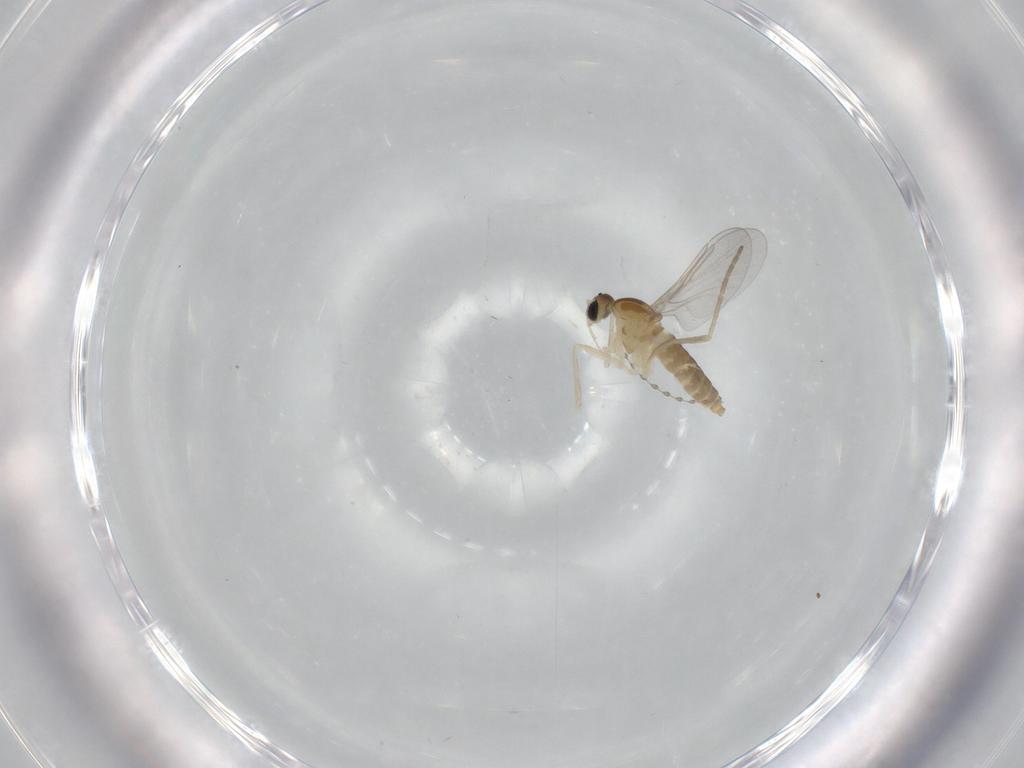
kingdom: Animalia
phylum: Arthropoda
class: Insecta
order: Diptera
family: Cecidomyiidae
